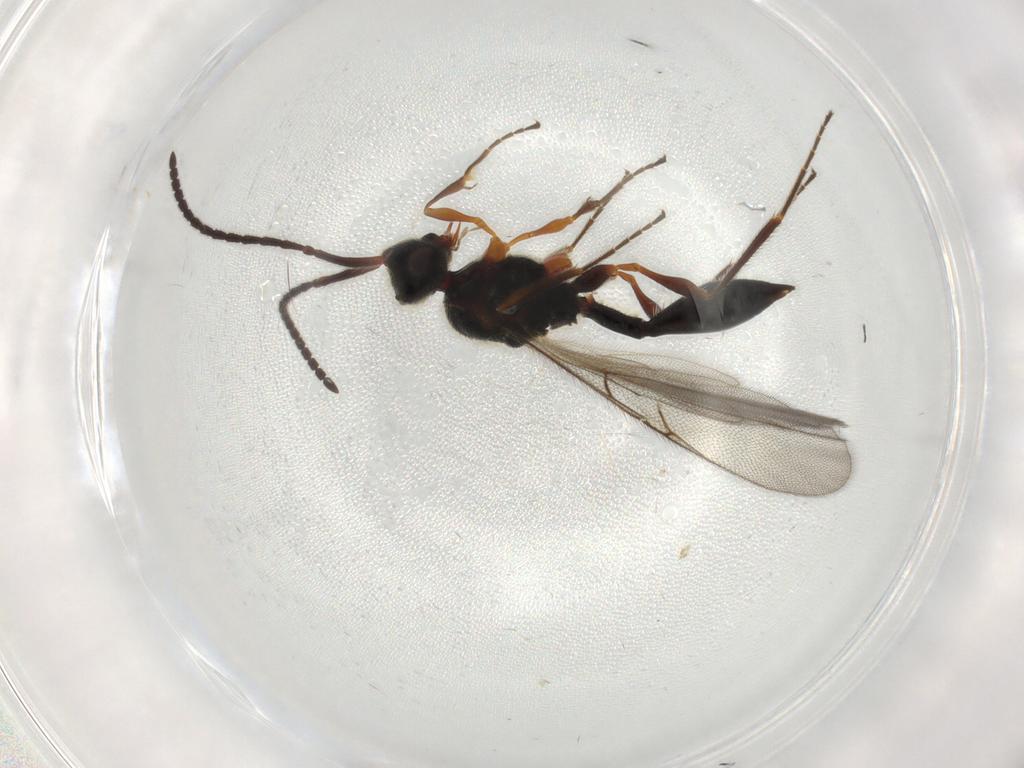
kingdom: Animalia
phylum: Arthropoda
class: Insecta
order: Hymenoptera
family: Diapriidae
